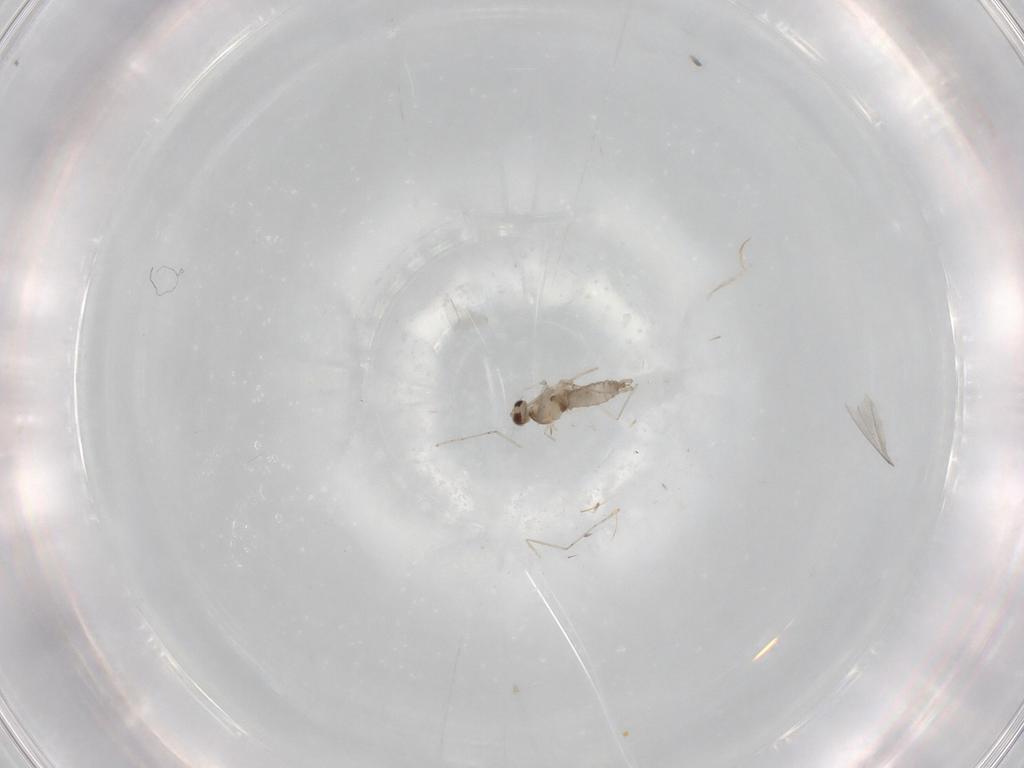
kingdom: Animalia
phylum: Arthropoda
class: Insecta
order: Diptera
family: Cecidomyiidae
